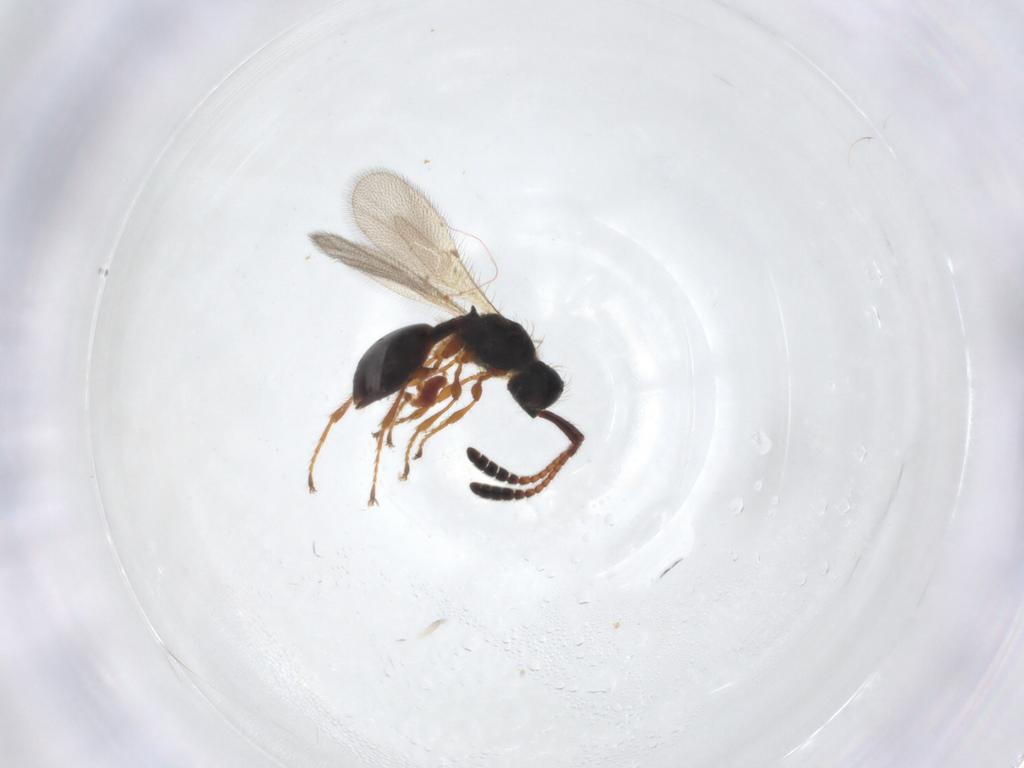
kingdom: Animalia
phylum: Arthropoda
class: Insecta
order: Hymenoptera
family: Diapriidae
